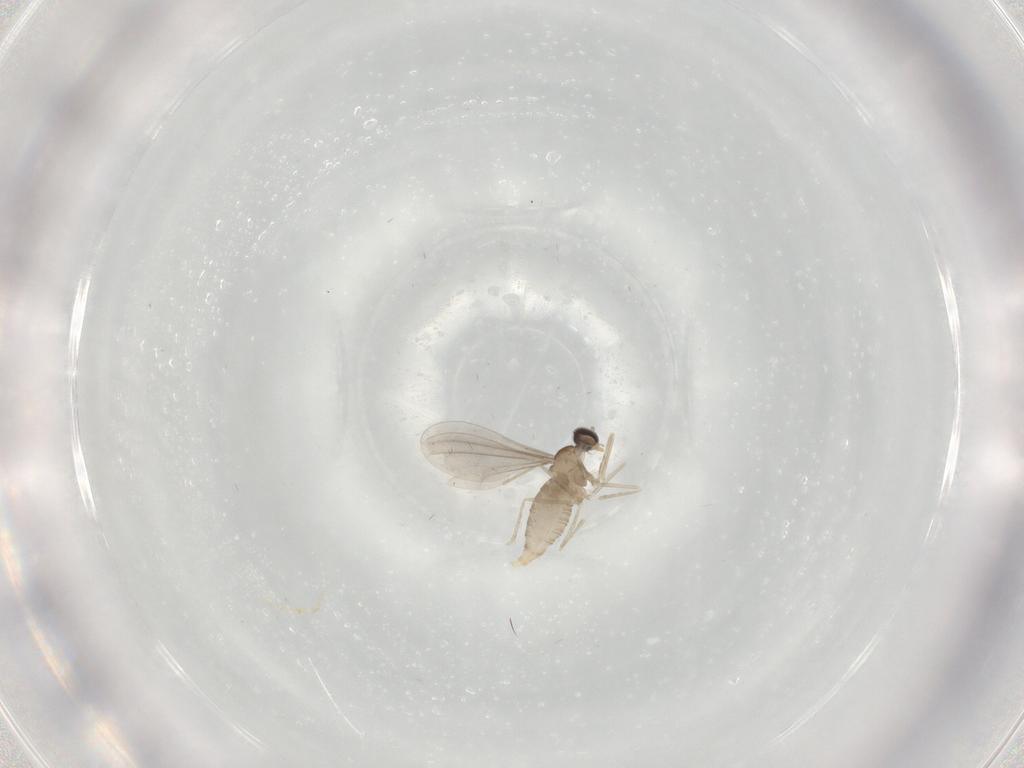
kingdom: Animalia
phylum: Arthropoda
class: Insecta
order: Diptera
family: Cecidomyiidae
